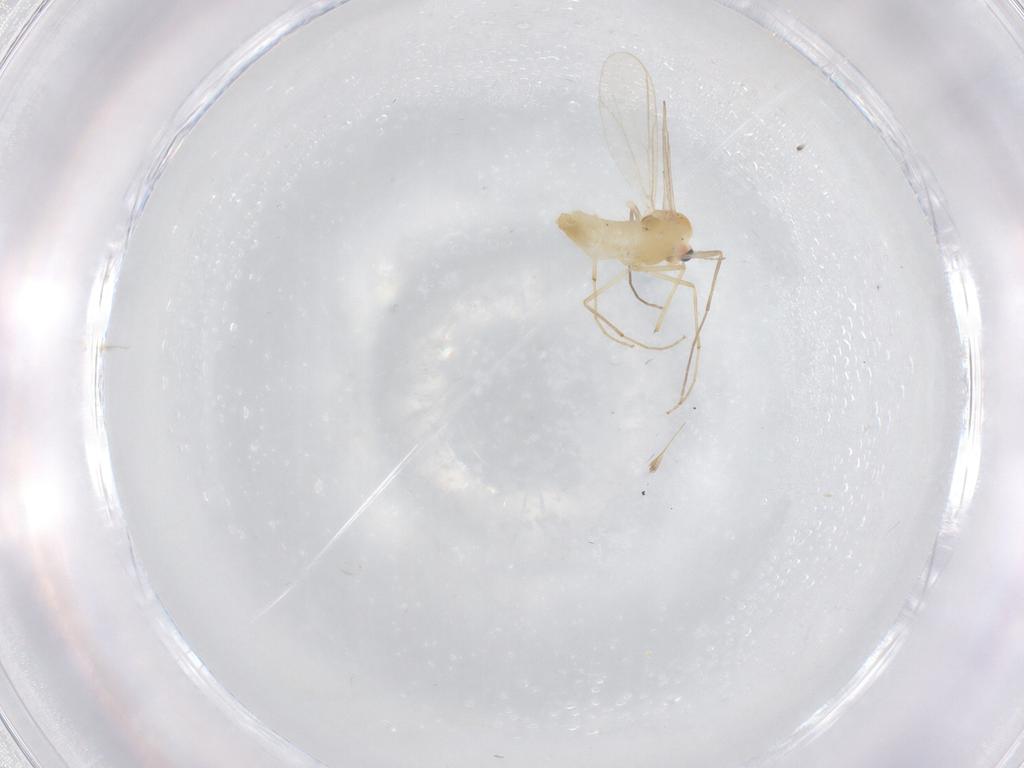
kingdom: Animalia
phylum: Arthropoda
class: Insecta
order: Diptera
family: Chironomidae
